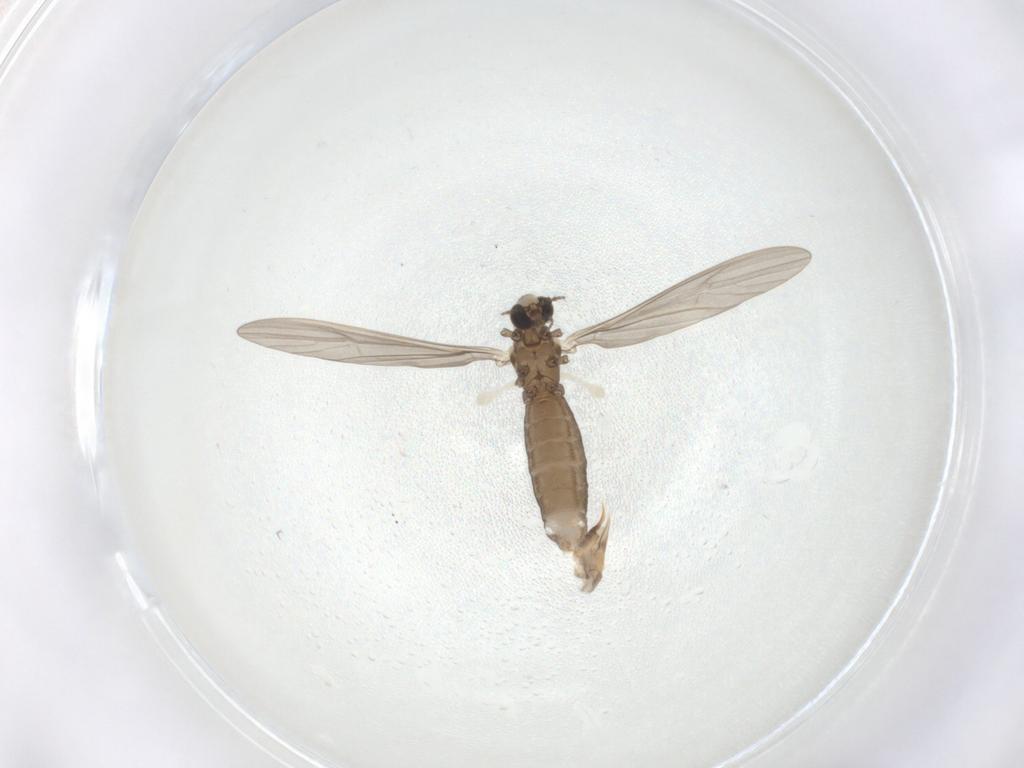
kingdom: Animalia
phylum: Arthropoda
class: Insecta
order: Diptera
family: Limoniidae
